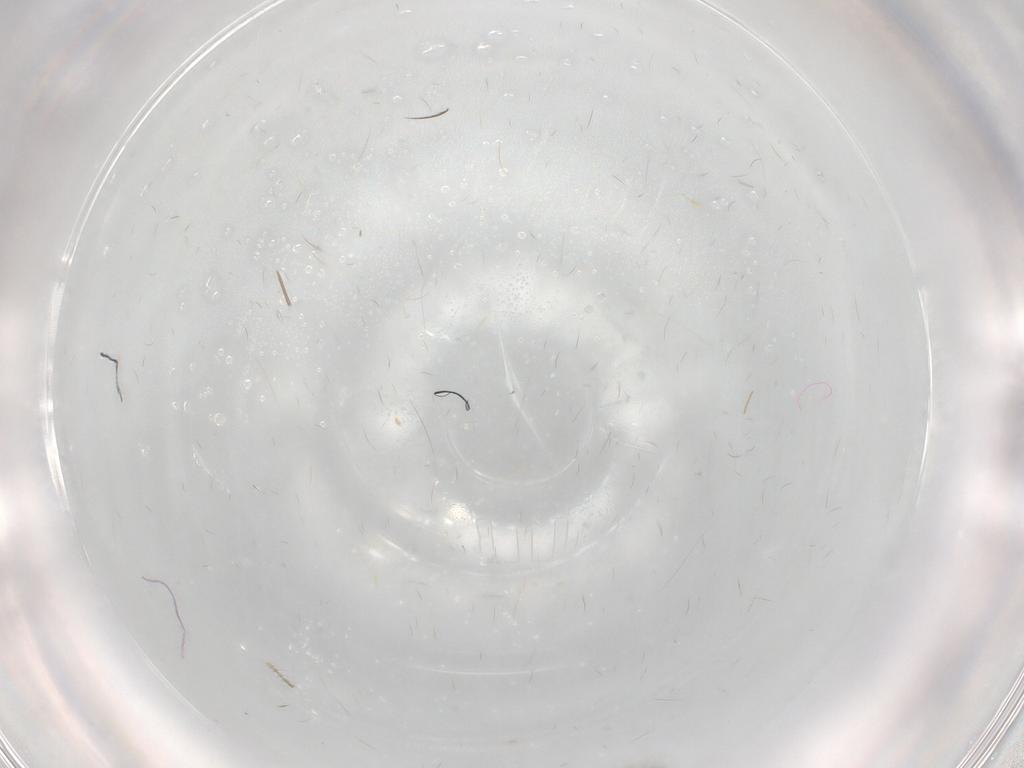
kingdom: Animalia
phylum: Arthropoda
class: Insecta
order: Hymenoptera
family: Scelionidae
